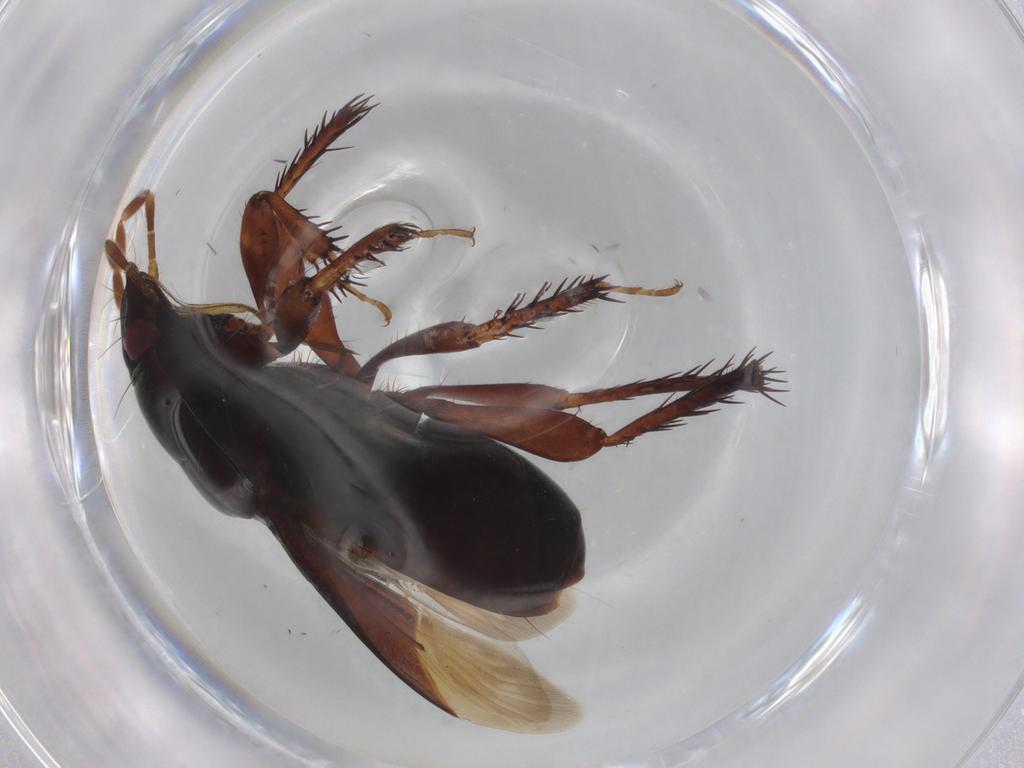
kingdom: Animalia
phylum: Arthropoda
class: Insecta
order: Hemiptera
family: Cydnidae
